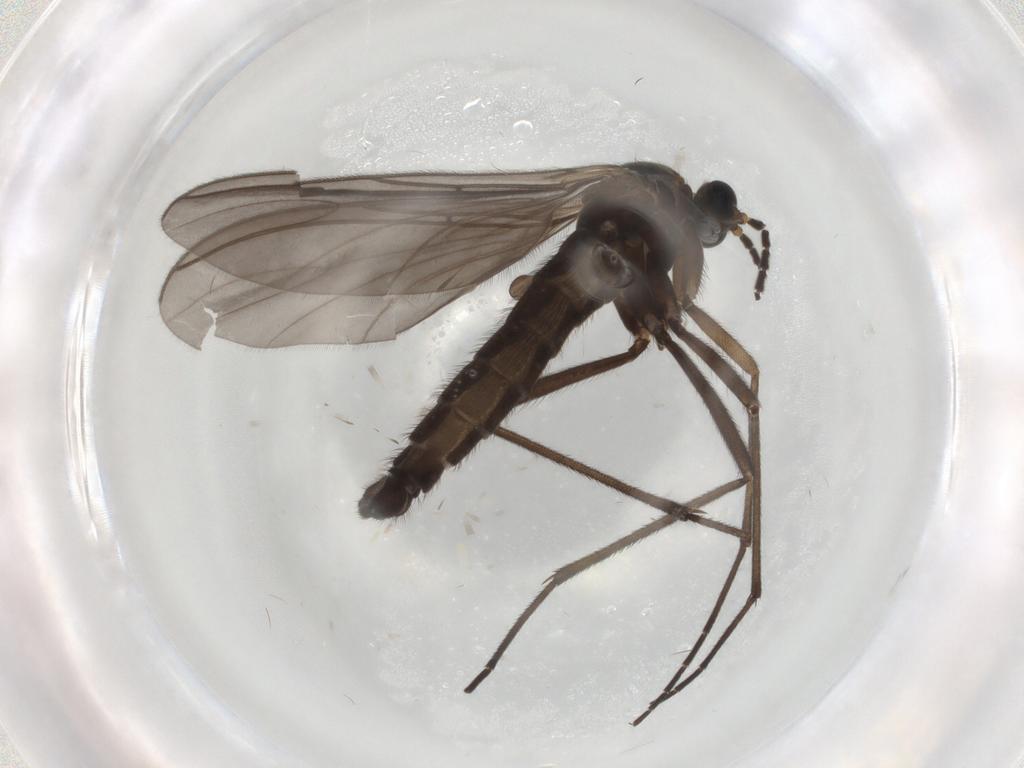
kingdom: Animalia
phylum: Arthropoda
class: Insecta
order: Diptera
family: Sciaridae
